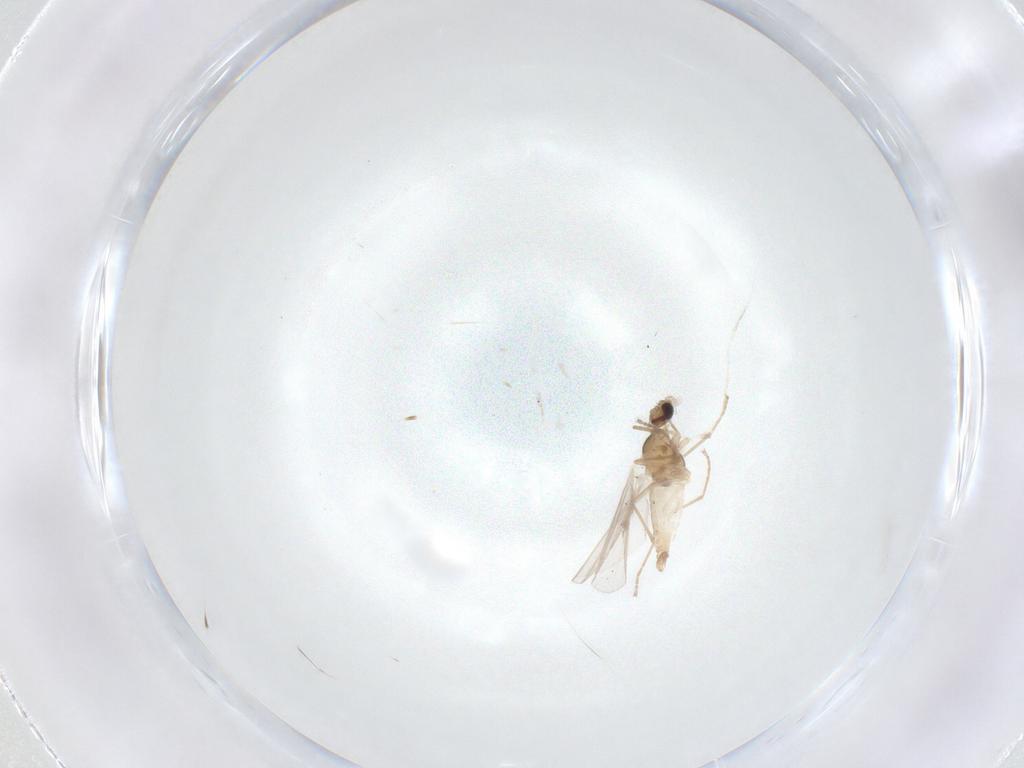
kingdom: Animalia
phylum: Arthropoda
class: Insecta
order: Diptera
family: Cecidomyiidae
